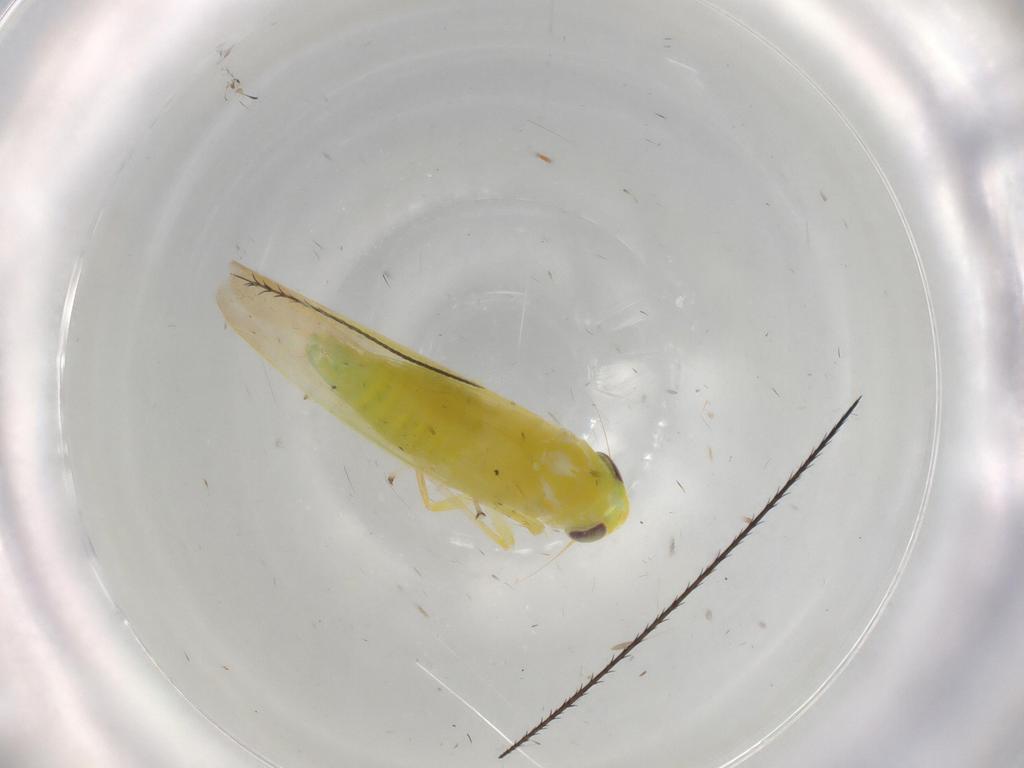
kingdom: Animalia
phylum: Arthropoda
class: Insecta
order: Hemiptera
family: Cicadellidae
